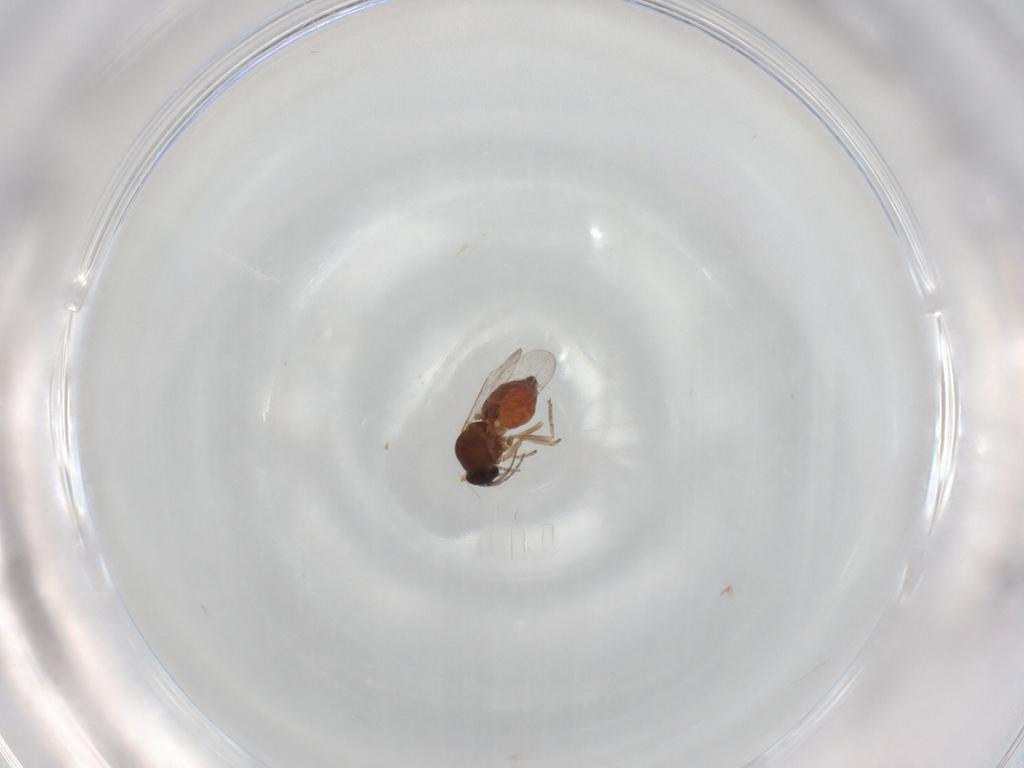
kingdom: Animalia
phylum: Arthropoda
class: Insecta
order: Diptera
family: Ceratopogonidae
